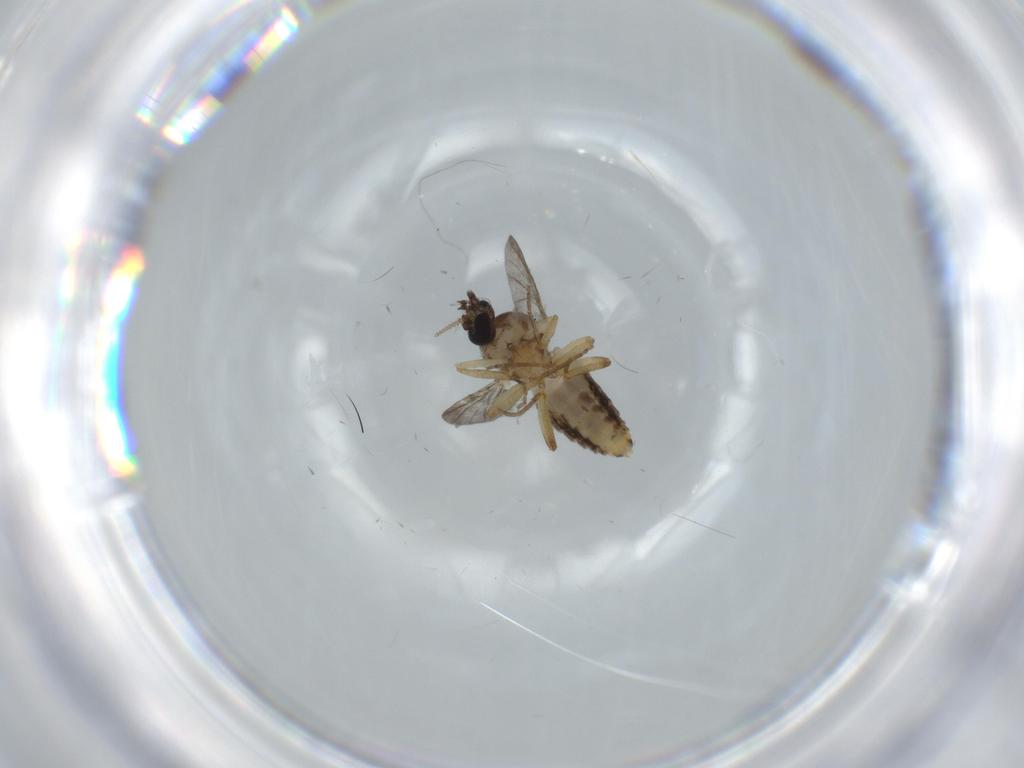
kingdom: Animalia
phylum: Arthropoda
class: Insecta
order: Diptera
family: Ceratopogonidae
